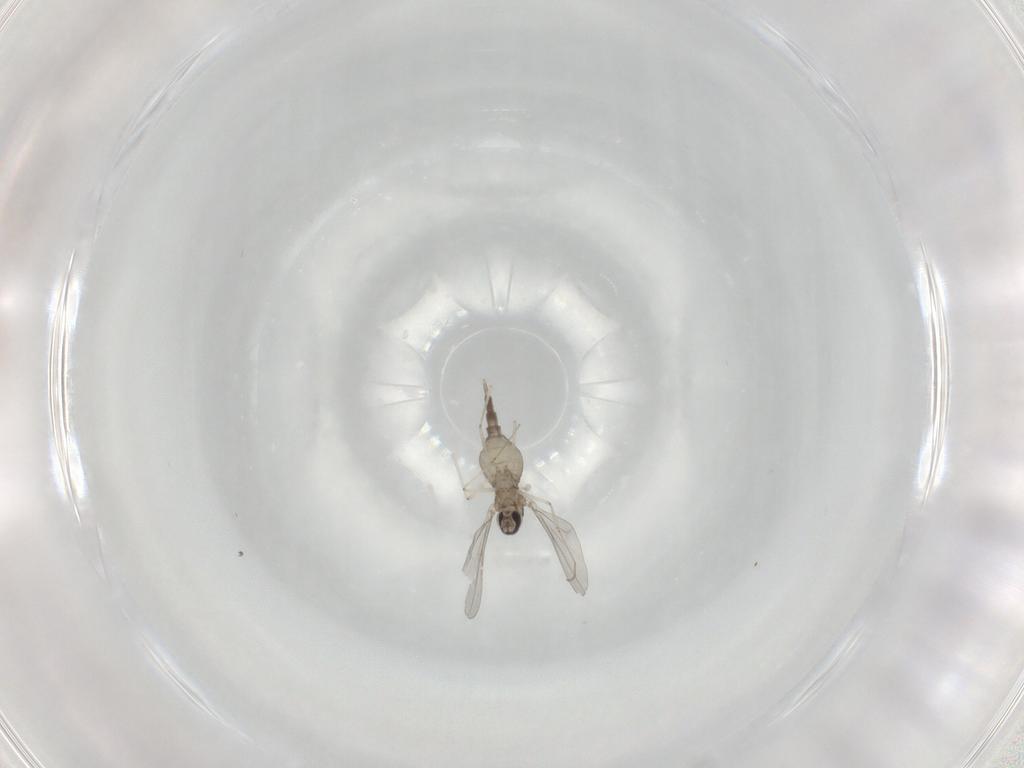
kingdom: Animalia
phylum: Arthropoda
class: Insecta
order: Diptera
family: Cecidomyiidae
